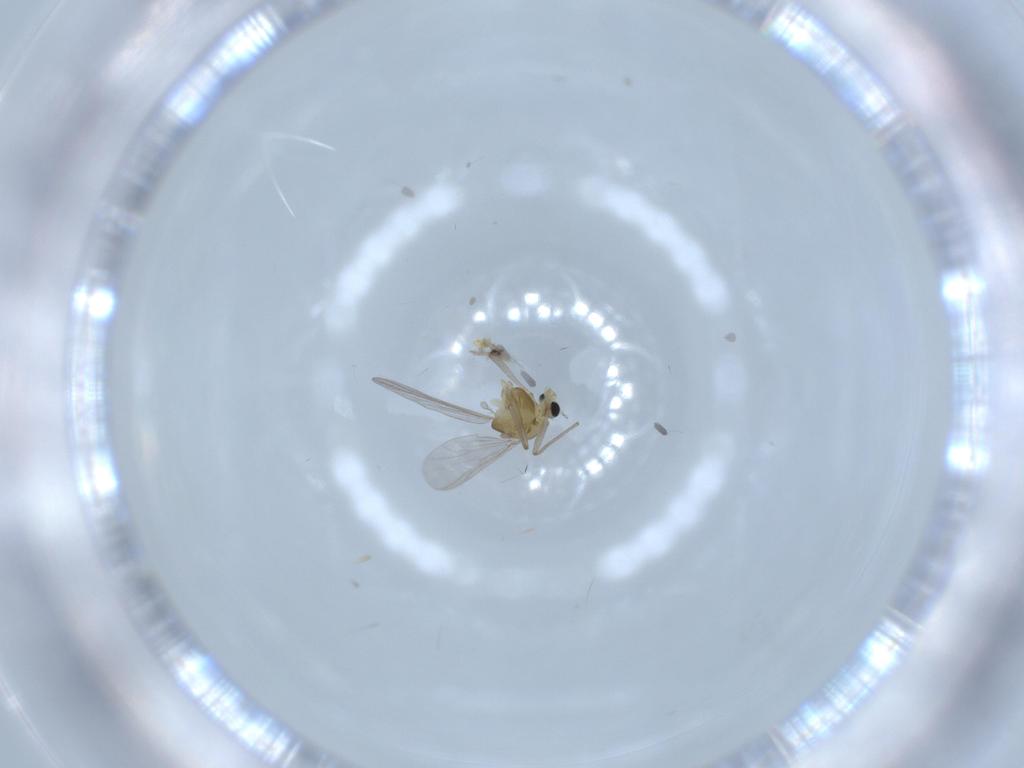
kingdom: Animalia
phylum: Arthropoda
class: Insecta
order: Diptera
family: Chironomidae
